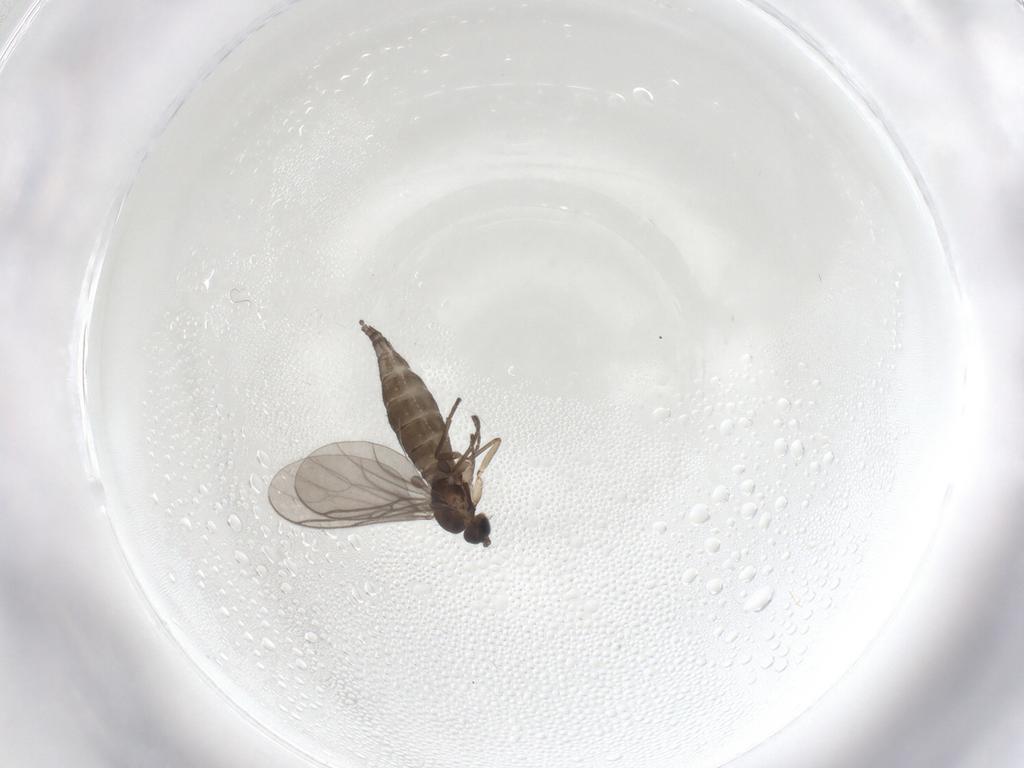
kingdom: Animalia
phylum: Arthropoda
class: Insecta
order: Diptera
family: Sciaridae
